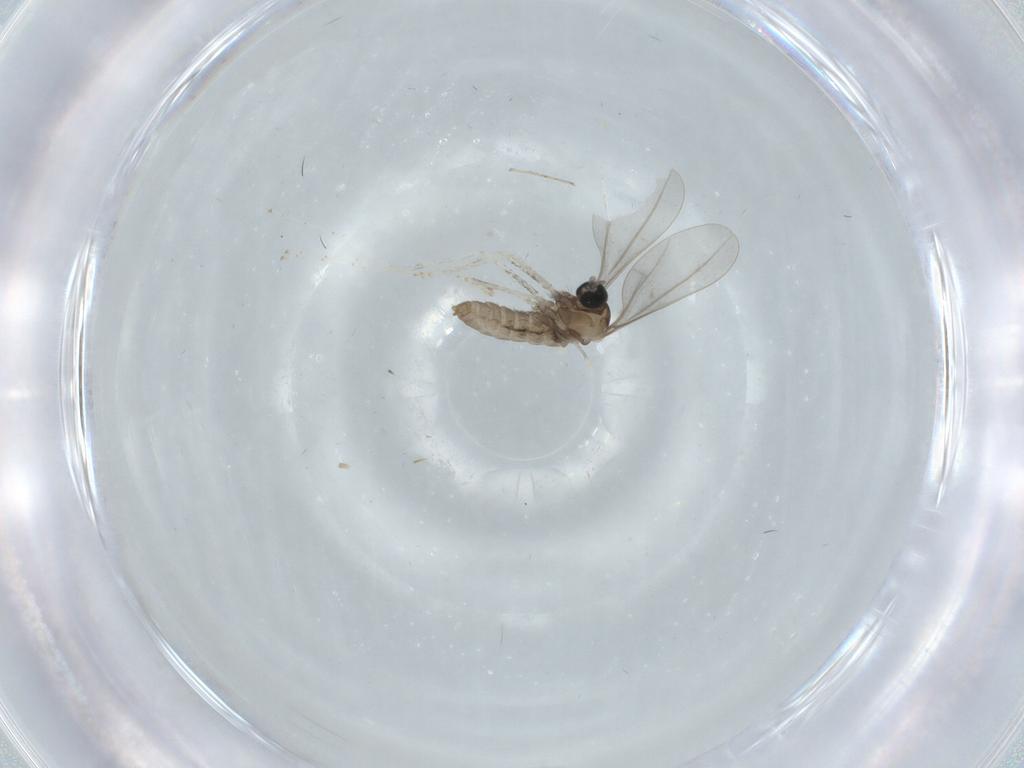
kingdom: Animalia
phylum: Arthropoda
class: Insecta
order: Diptera
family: Cecidomyiidae
